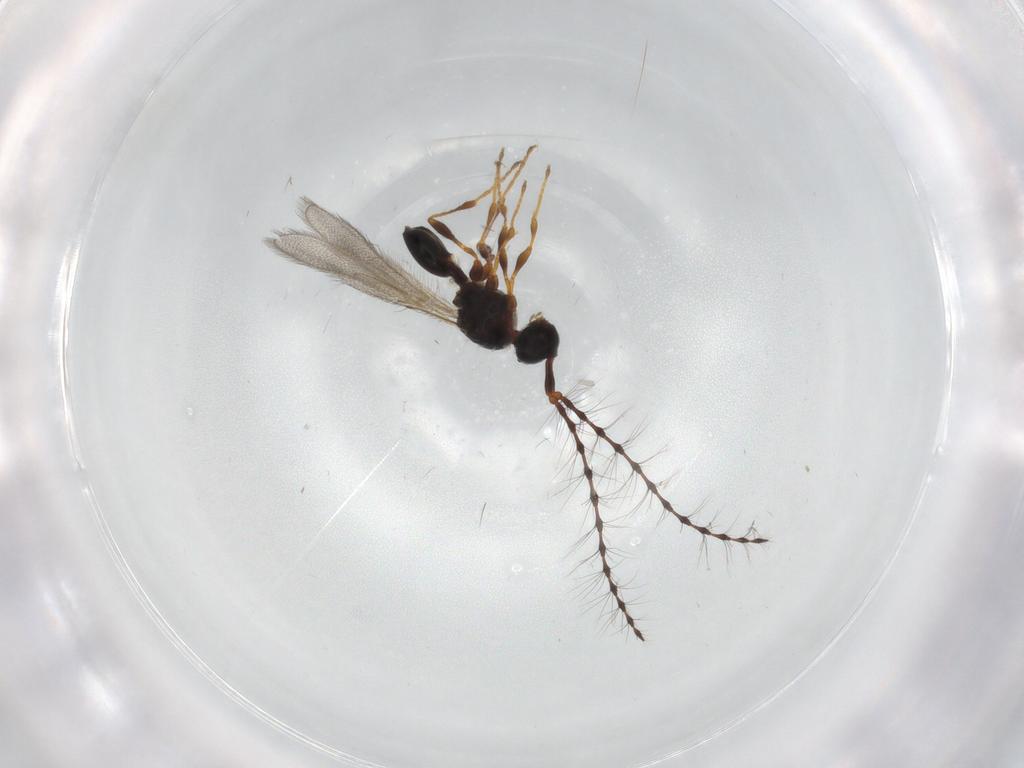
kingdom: Animalia
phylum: Arthropoda
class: Insecta
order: Hymenoptera
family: Diapriidae
